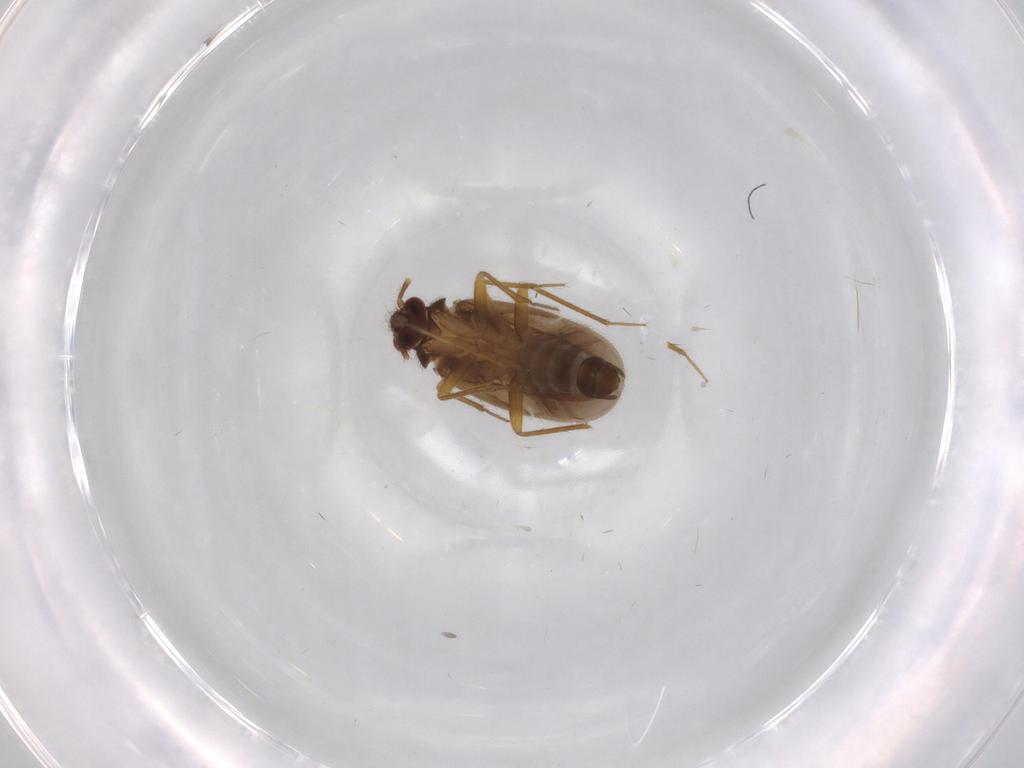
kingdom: Animalia
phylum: Arthropoda
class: Insecta
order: Hemiptera
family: Ceratocombidae
